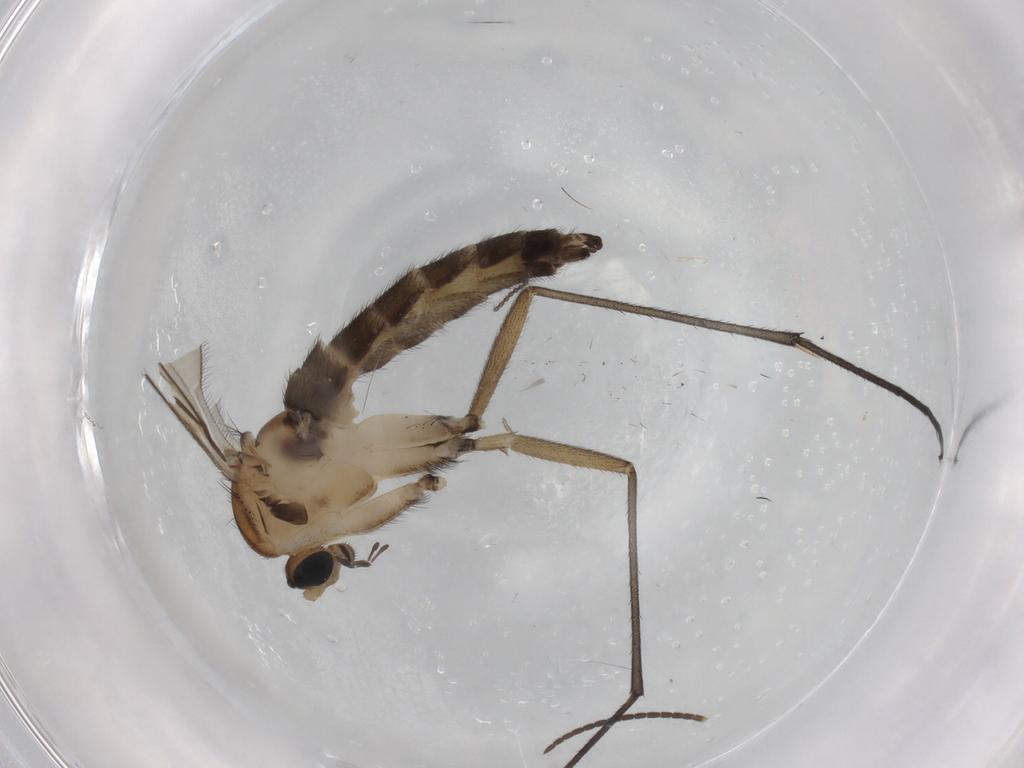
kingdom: Animalia
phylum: Arthropoda
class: Insecta
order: Diptera
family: Sciaridae
